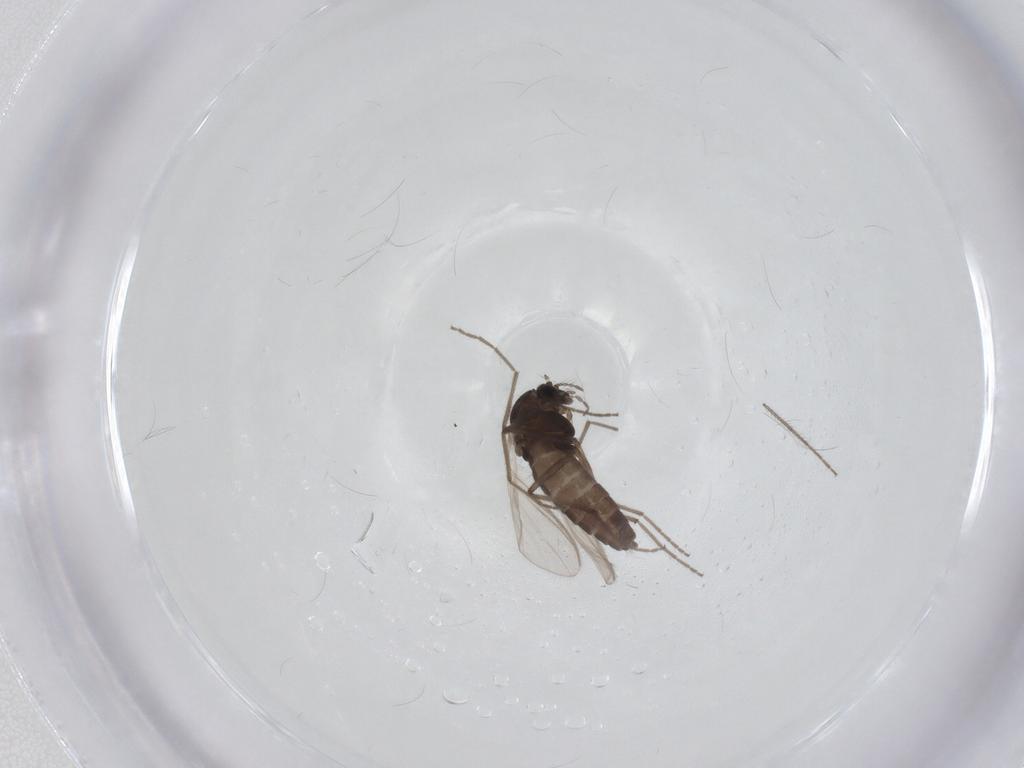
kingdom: Animalia
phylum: Arthropoda
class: Insecta
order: Diptera
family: Chironomidae
